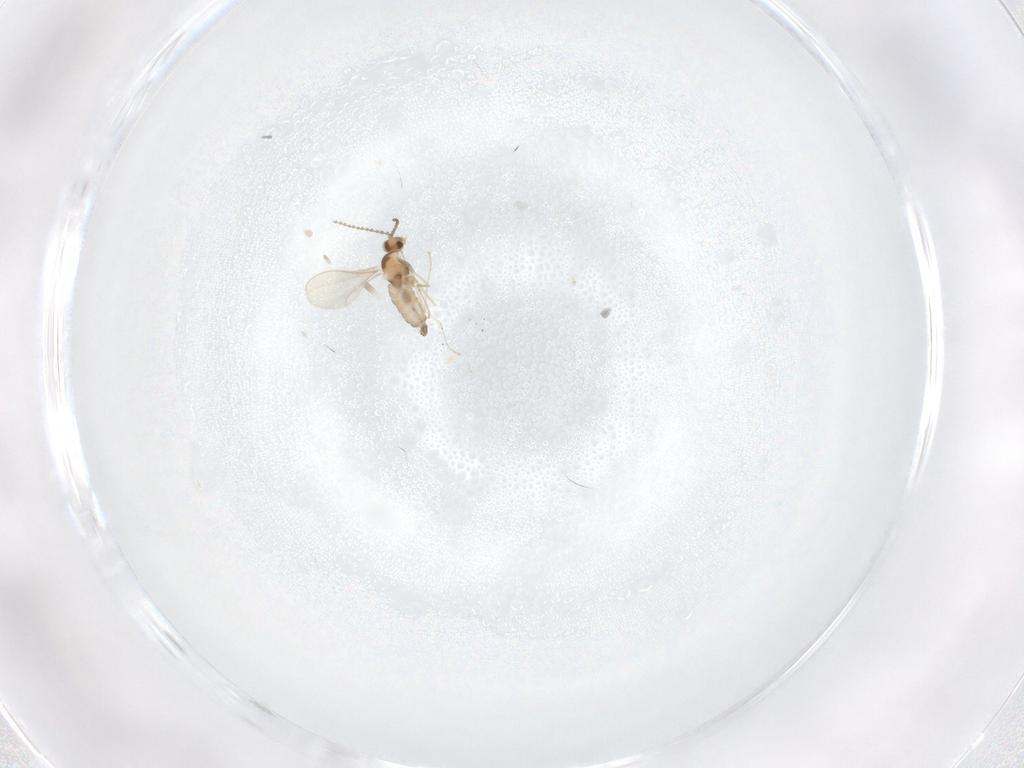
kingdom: Animalia
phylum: Arthropoda
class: Insecta
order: Diptera
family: Cecidomyiidae
